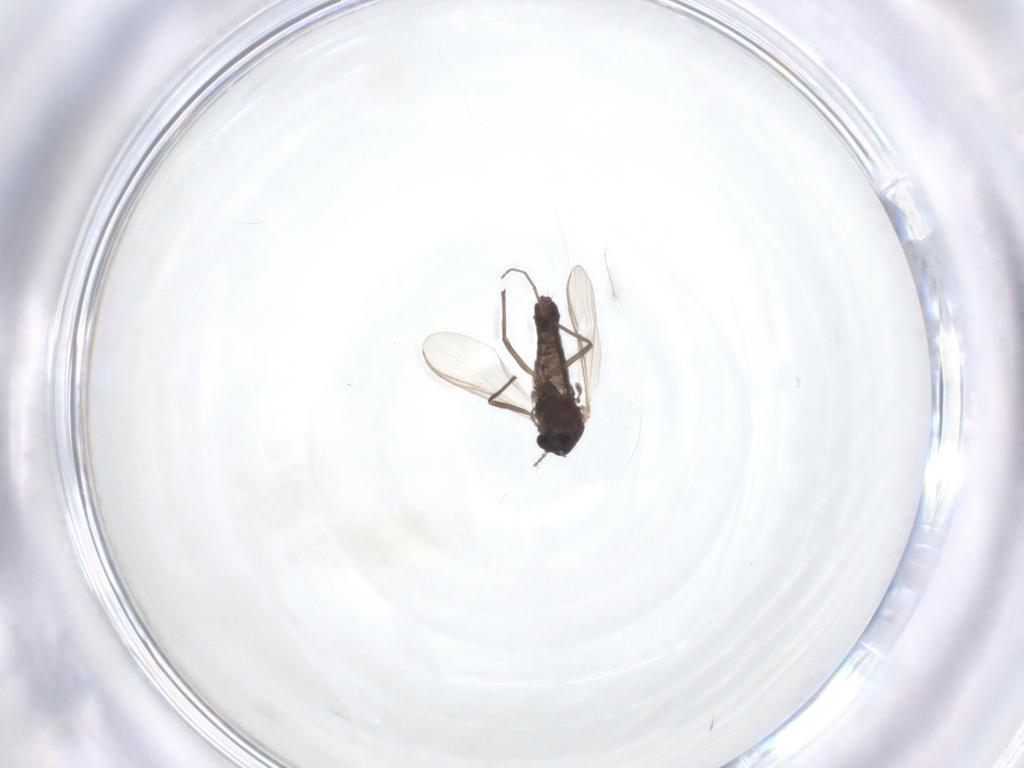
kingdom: Animalia
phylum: Arthropoda
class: Insecta
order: Diptera
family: Chironomidae
